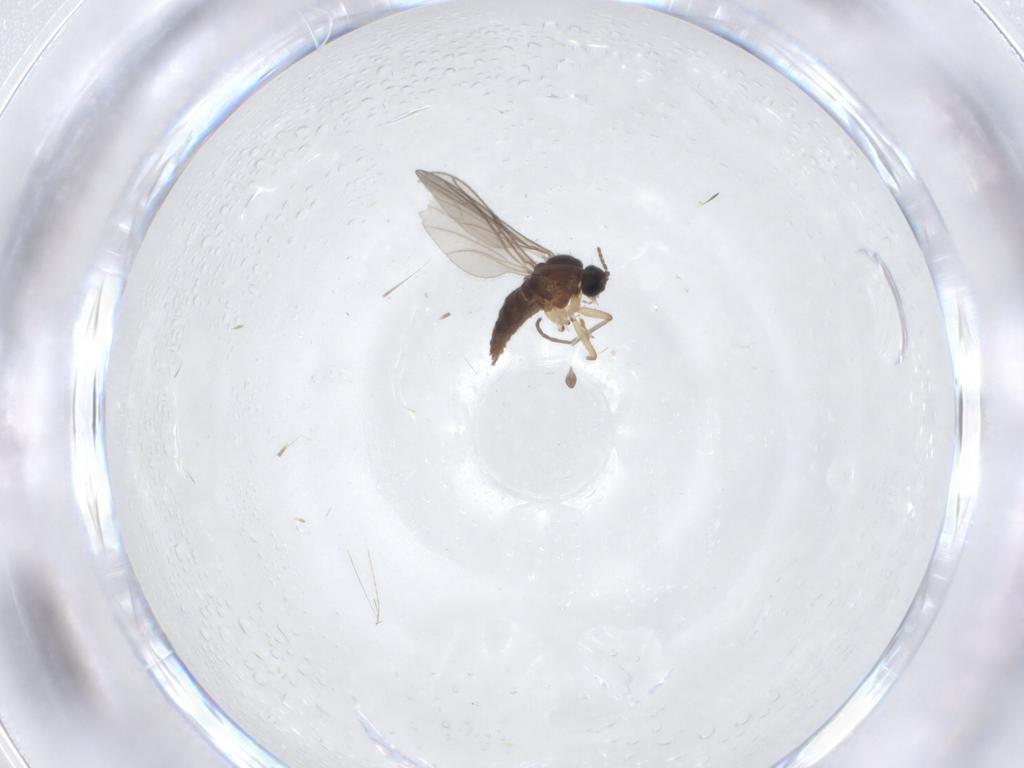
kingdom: Animalia
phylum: Arthropoda
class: Insecta
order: Diptera
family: Sciaridae
